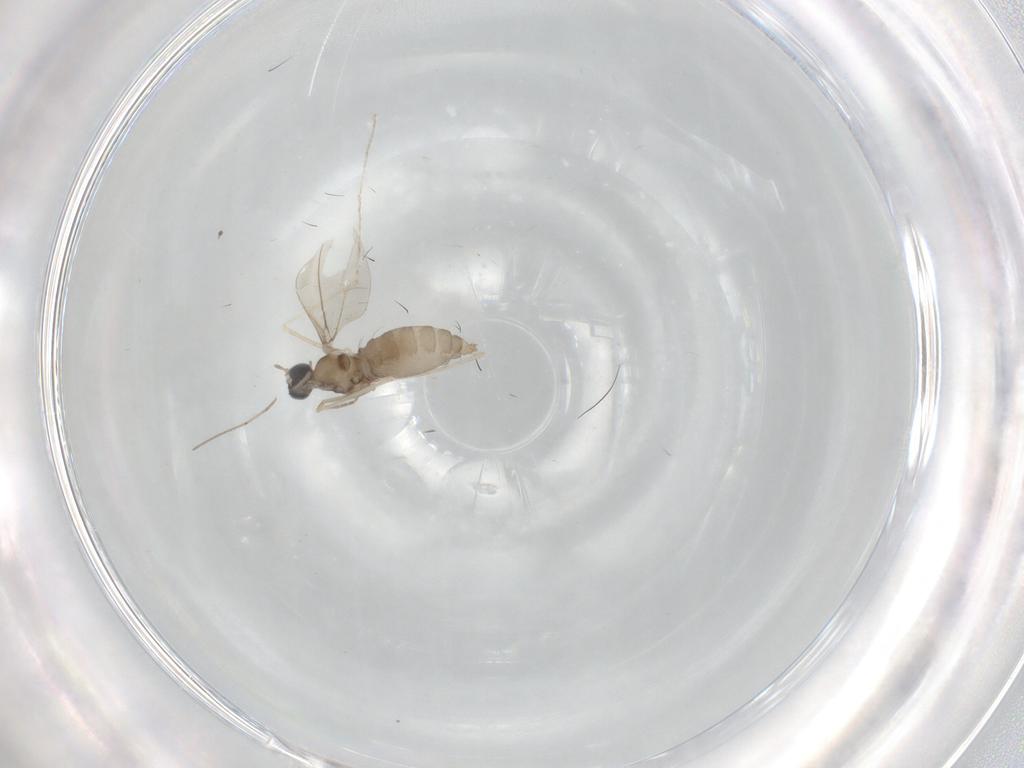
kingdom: Animalia
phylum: Arthropoda
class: Insecta
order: Diptera
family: Cecidomyiidae
